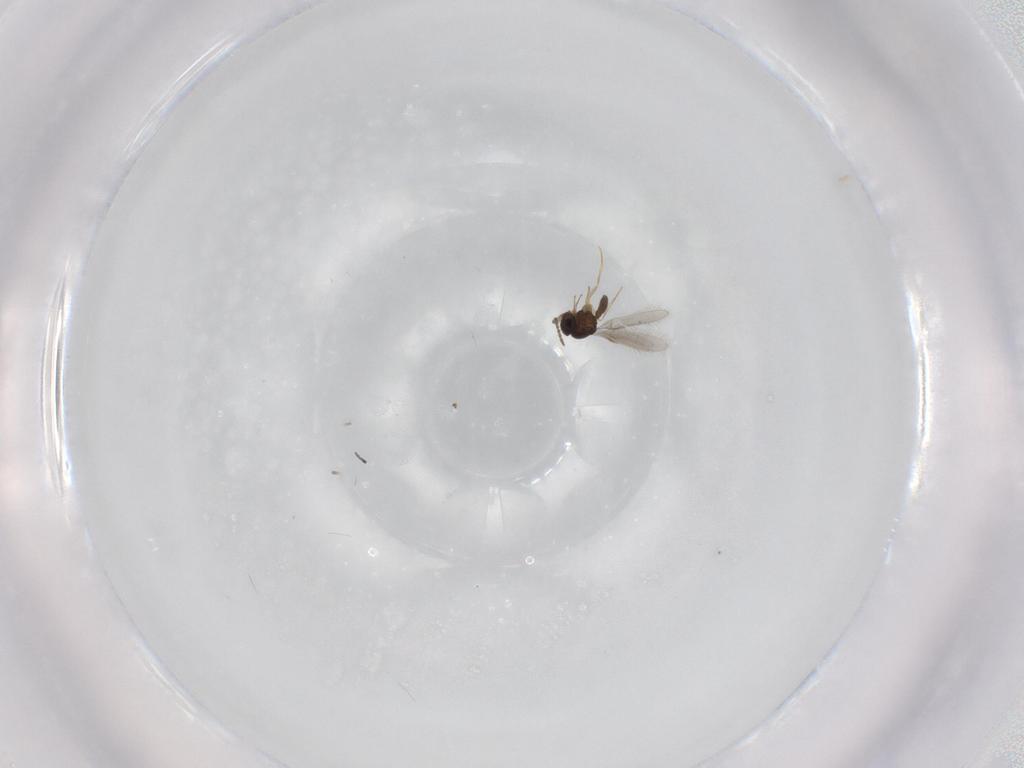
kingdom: Animalia
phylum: Arthropoda
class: Insecta
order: Hymenoptera
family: Scelionidae
